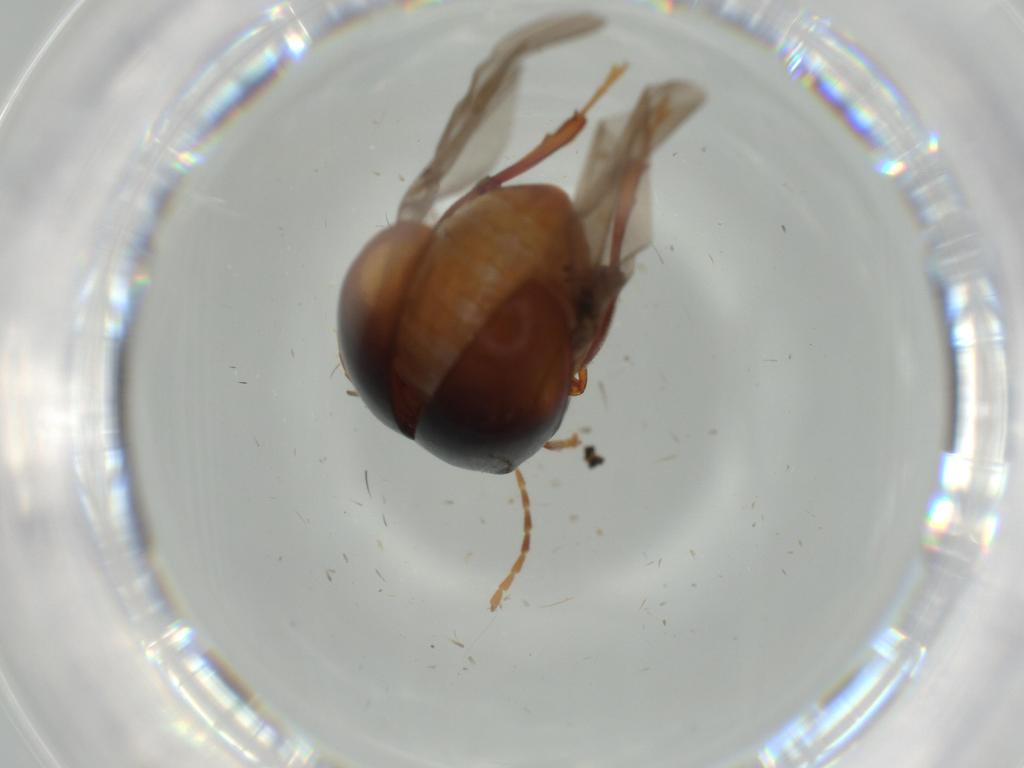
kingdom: Animalia
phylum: Arthropoda
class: Insecta
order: Coleoptera
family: Chrysomelidae
